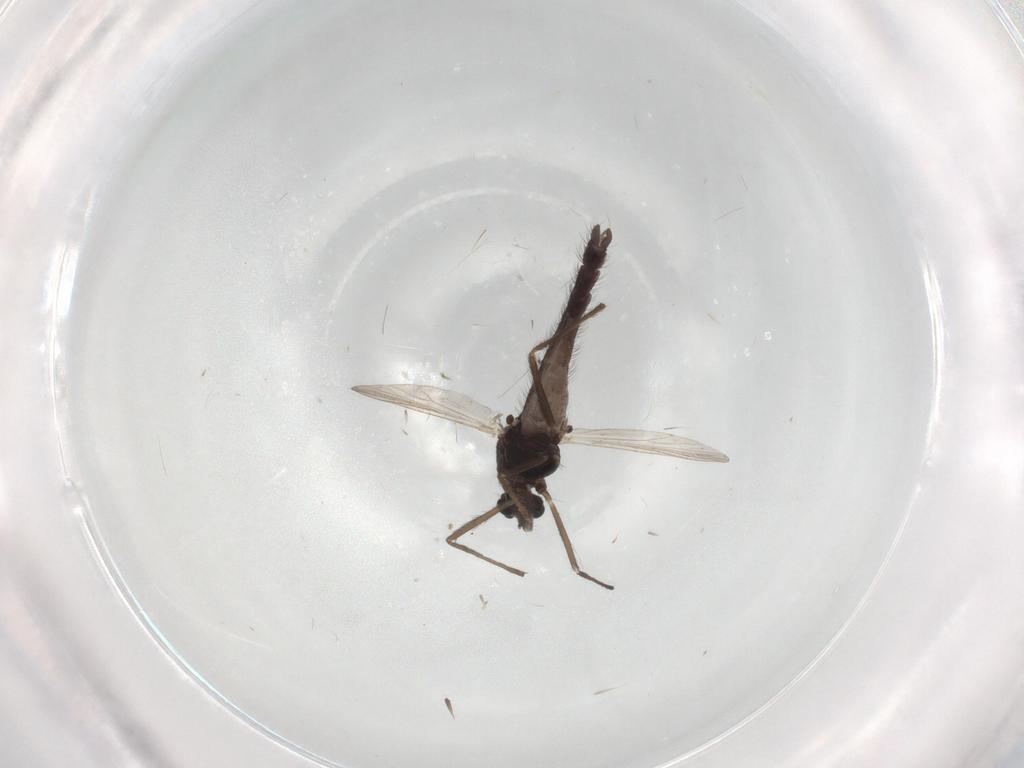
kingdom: Animalia
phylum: Arthropoda
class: Insecta
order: Diptera
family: Chironomidae
